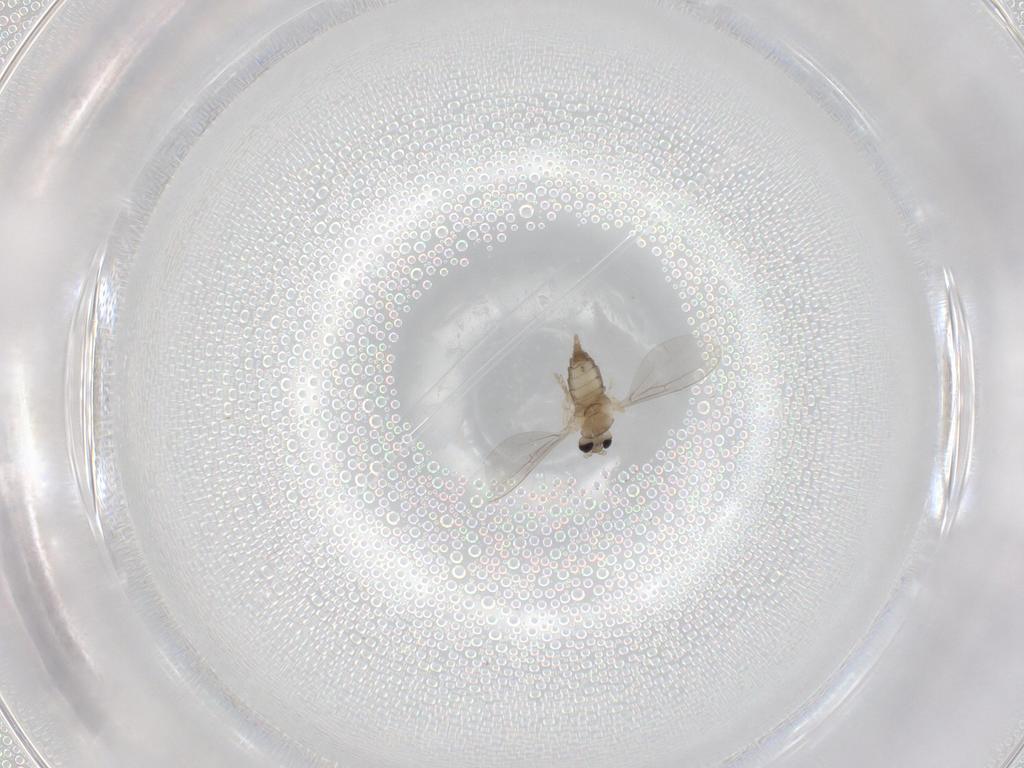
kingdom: Animalia
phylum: Arthropoda
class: Insecta
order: Diptera
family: Cecidomyiidae
